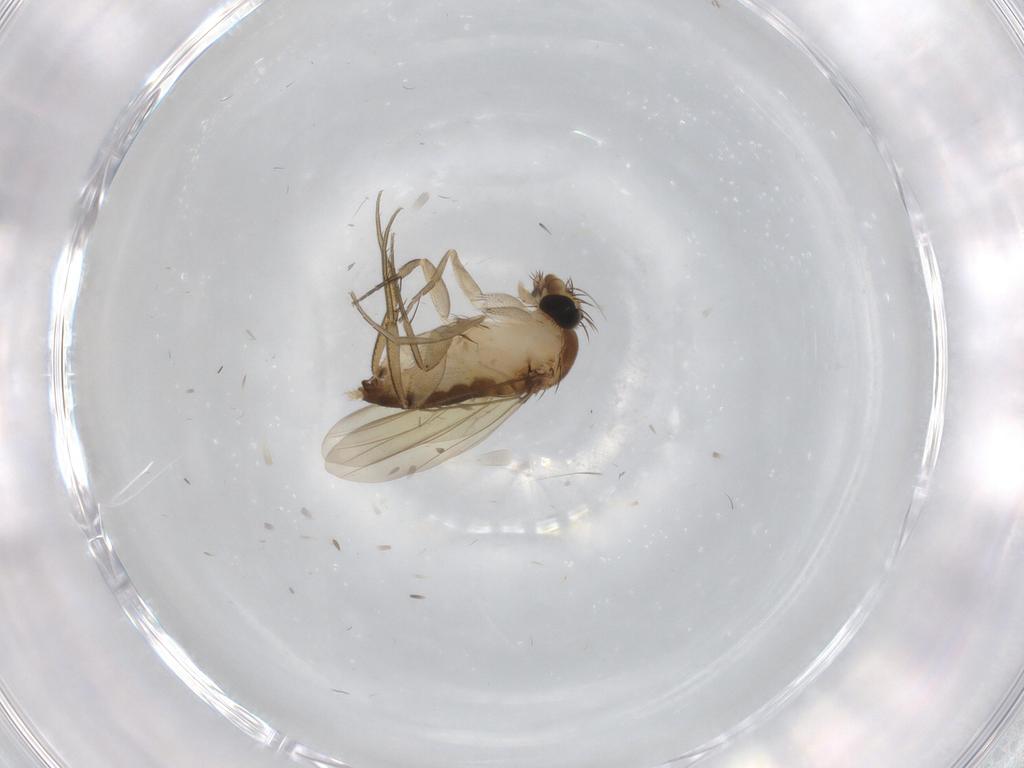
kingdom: Animalia
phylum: Arthropoda
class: Insecta
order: Diptera
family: Phoridae
